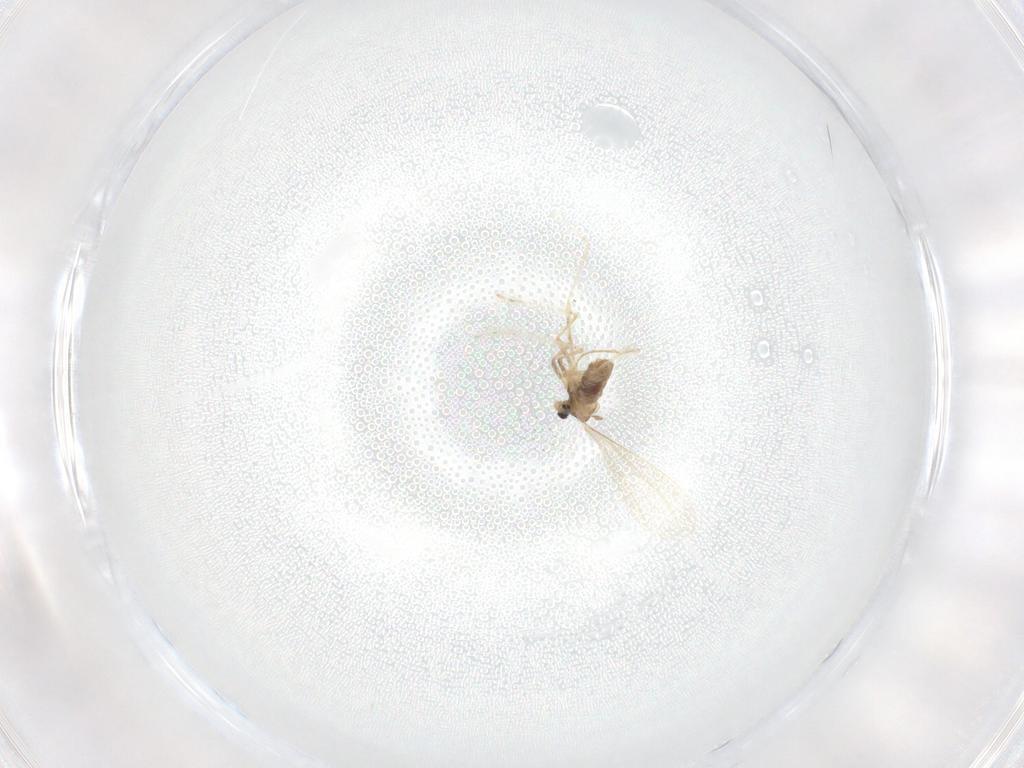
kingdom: Animalia
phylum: Arthropoda
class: Insecta
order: Diptera
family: Cecidomyiidae
